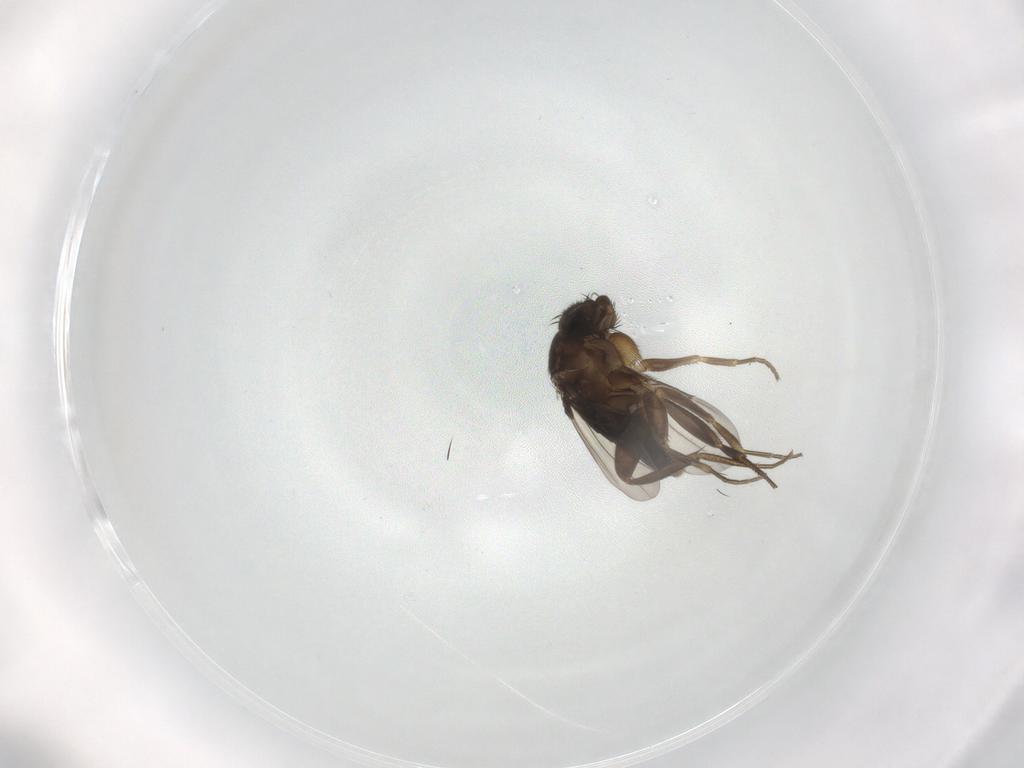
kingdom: Animalia
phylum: Arthropoda
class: Insecta
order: Diptera
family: Phoridae
